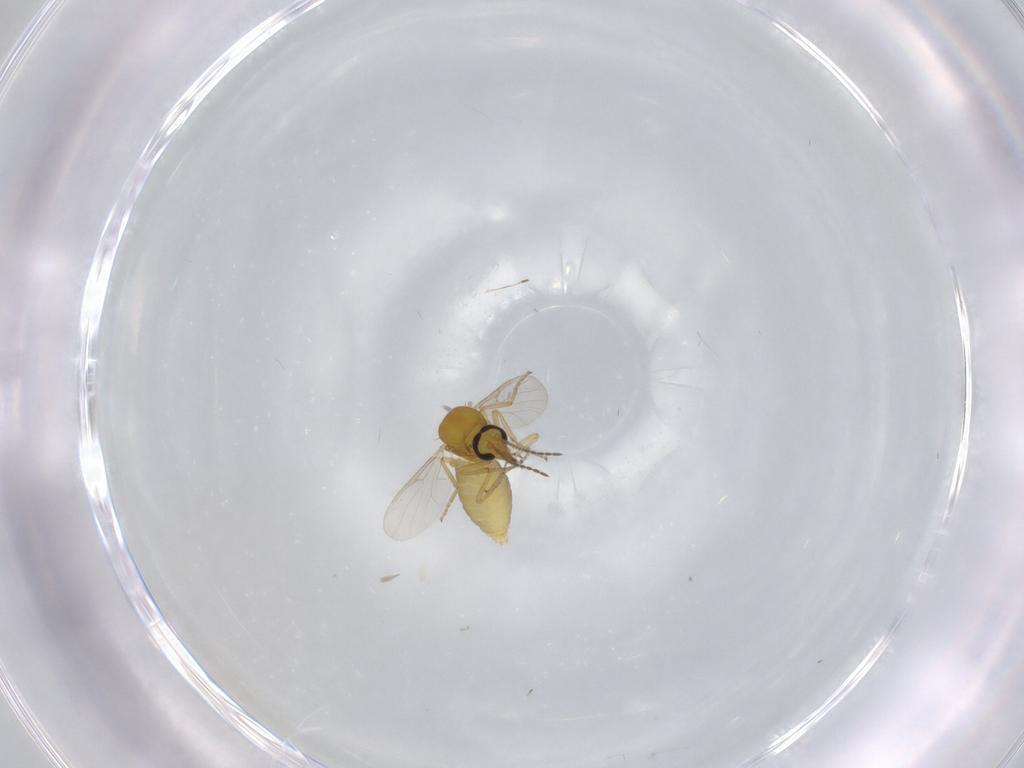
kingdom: Animalia
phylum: Arthropoda
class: Insecta
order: Diptera
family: Ceratopogonidae
